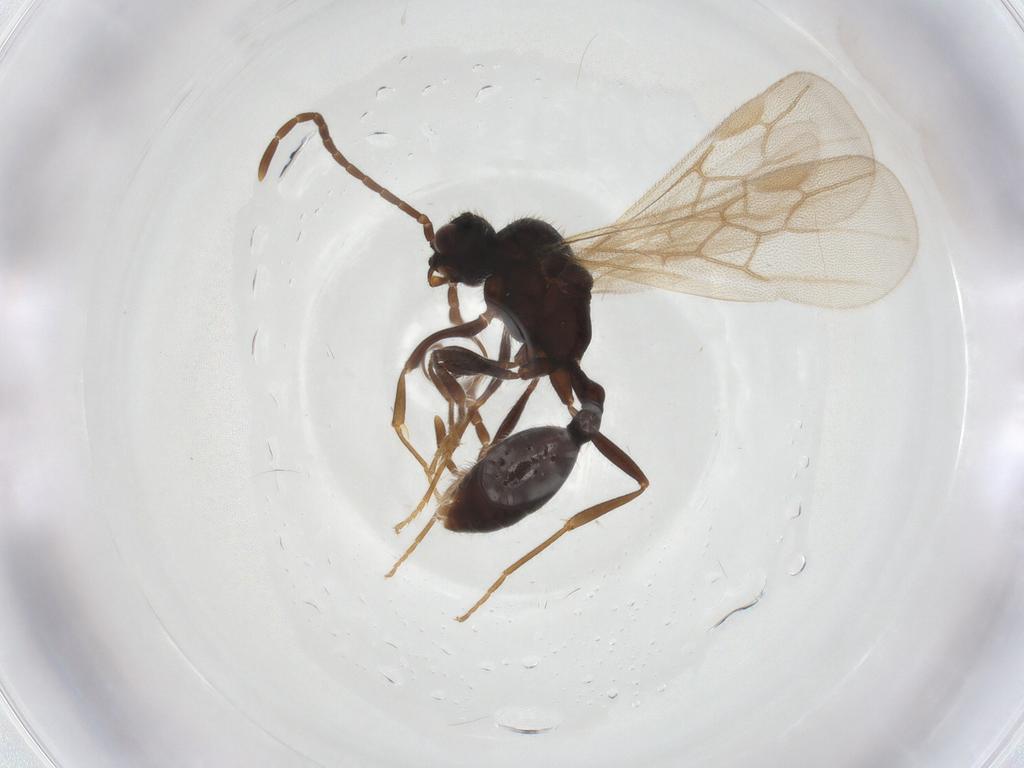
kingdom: Animalia
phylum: Arthropoda
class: Insecta
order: Hymenoptera
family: Formicidae
